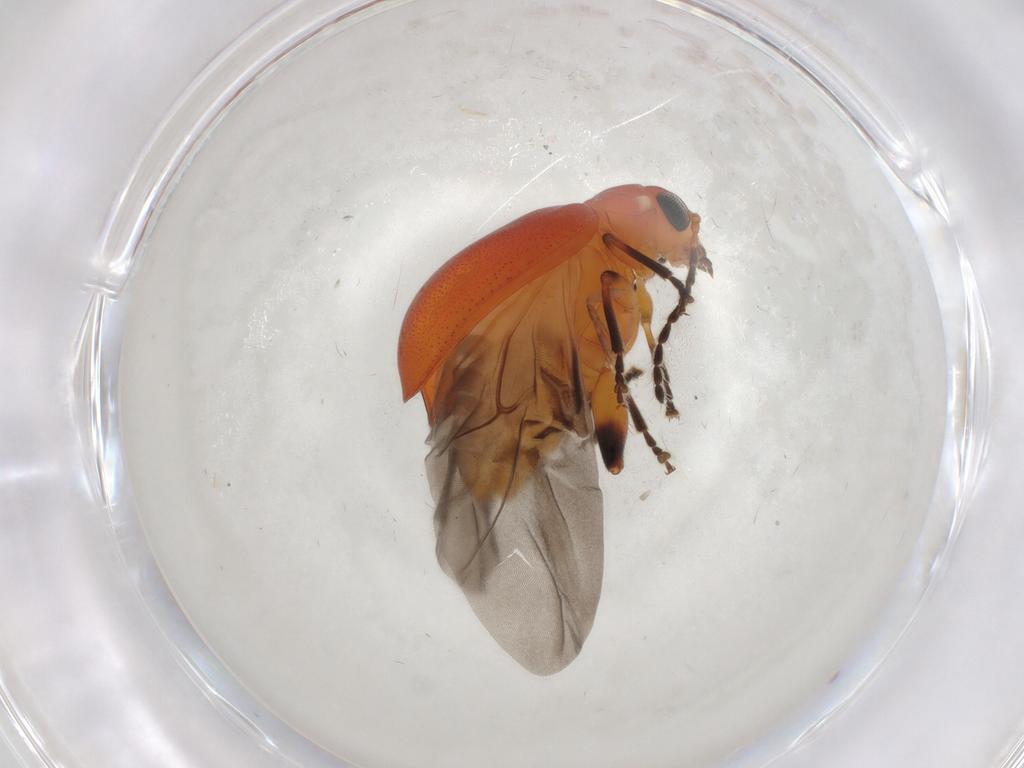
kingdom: Animalia
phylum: Arthropoda
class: Insecta
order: Coleoptera
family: Chrysomelidae
